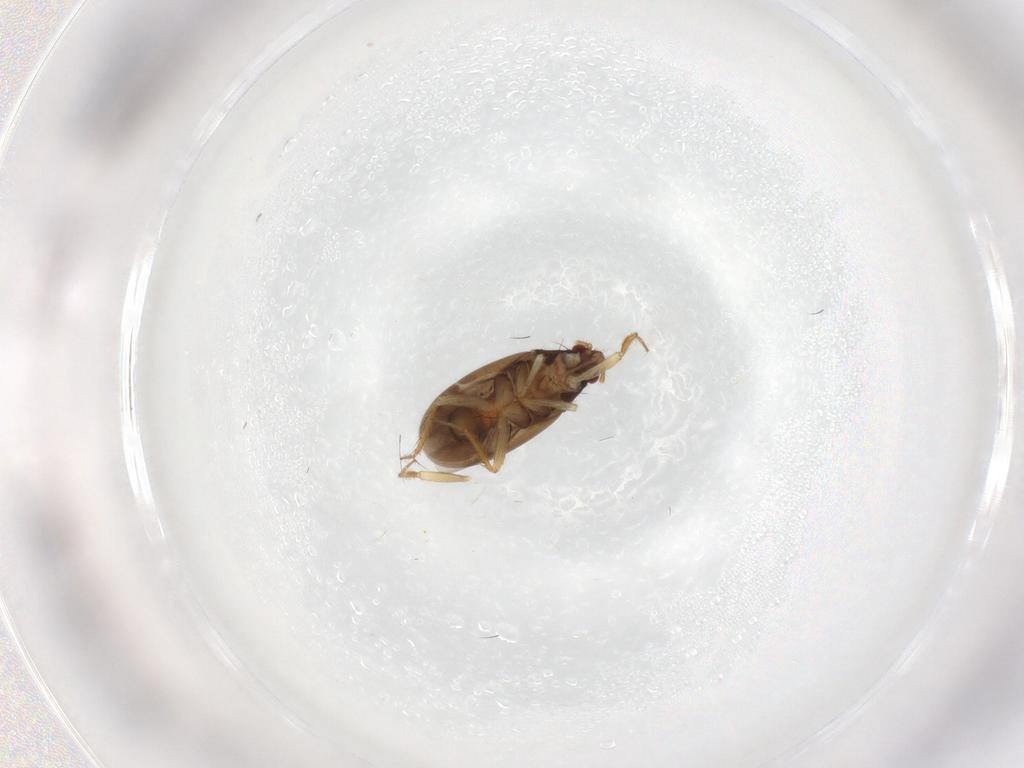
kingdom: Animalia
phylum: Arthropoda
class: Insecta
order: Hemiptera
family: Ceratocombidae
